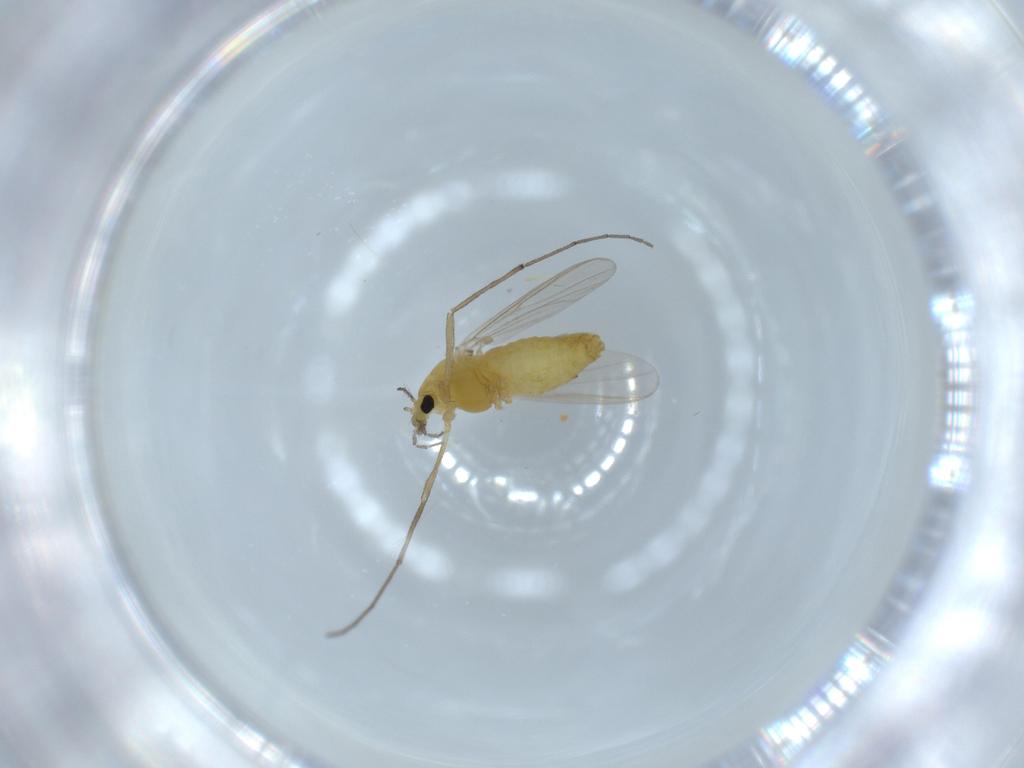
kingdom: Animalia
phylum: Arthropoda
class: Insecta
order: Diptera
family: Chironomidae
